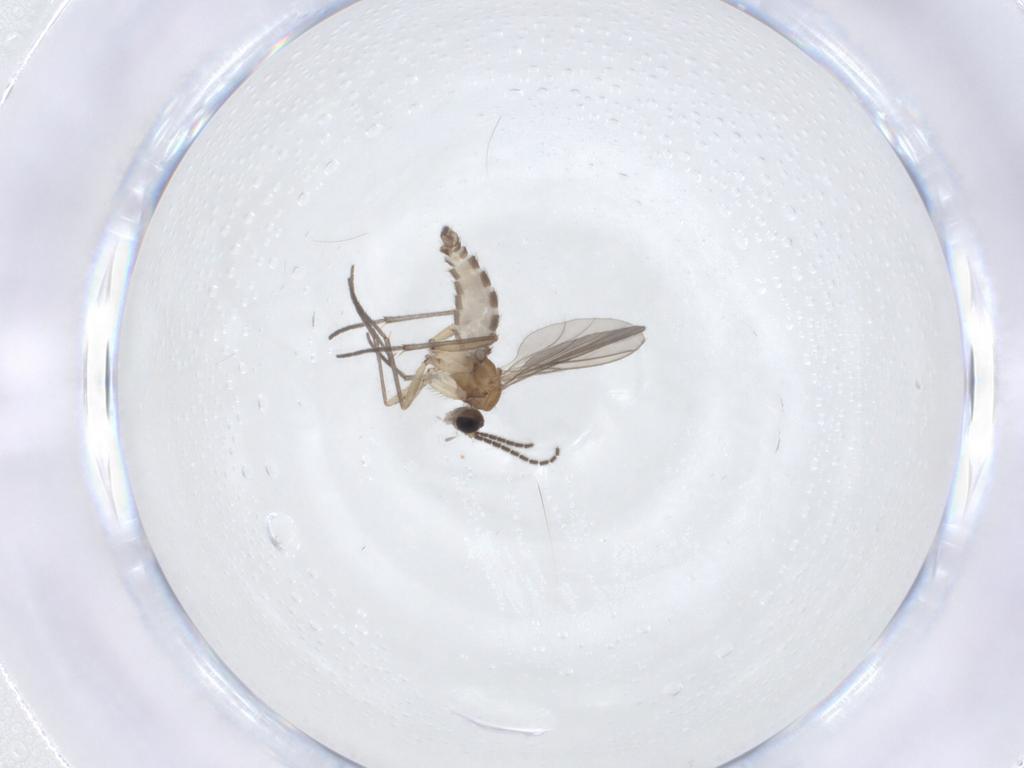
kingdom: Animalia
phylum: Arthropoda
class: Insecta
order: Diptera
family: Sciaridae
